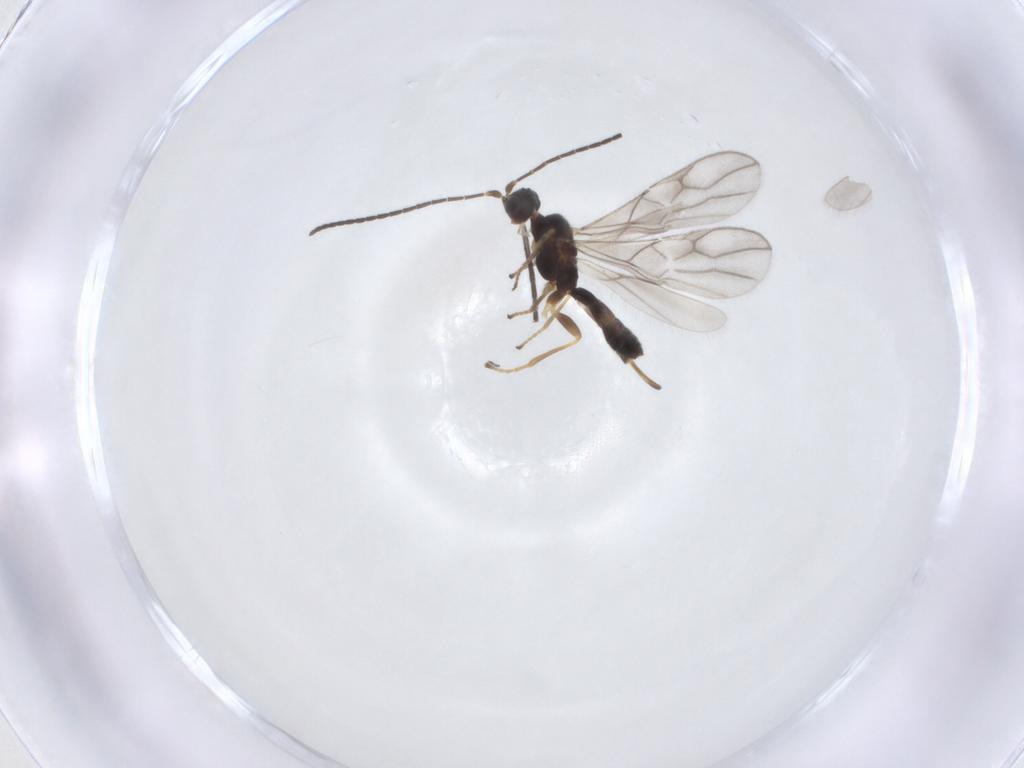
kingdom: Animalia
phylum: Arthropoda
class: Insecta
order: Hymenoptera
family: Braconidae
